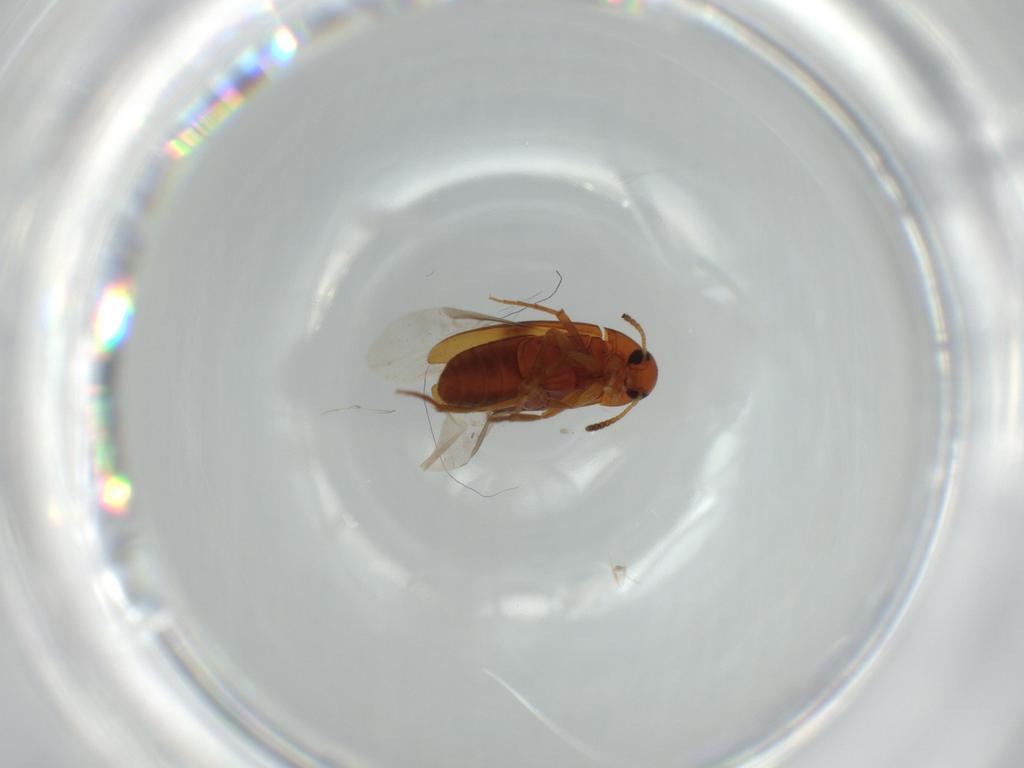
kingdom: Animalia
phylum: Arthropoda
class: Insecta
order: Coleoptera
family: Scraptiidae
